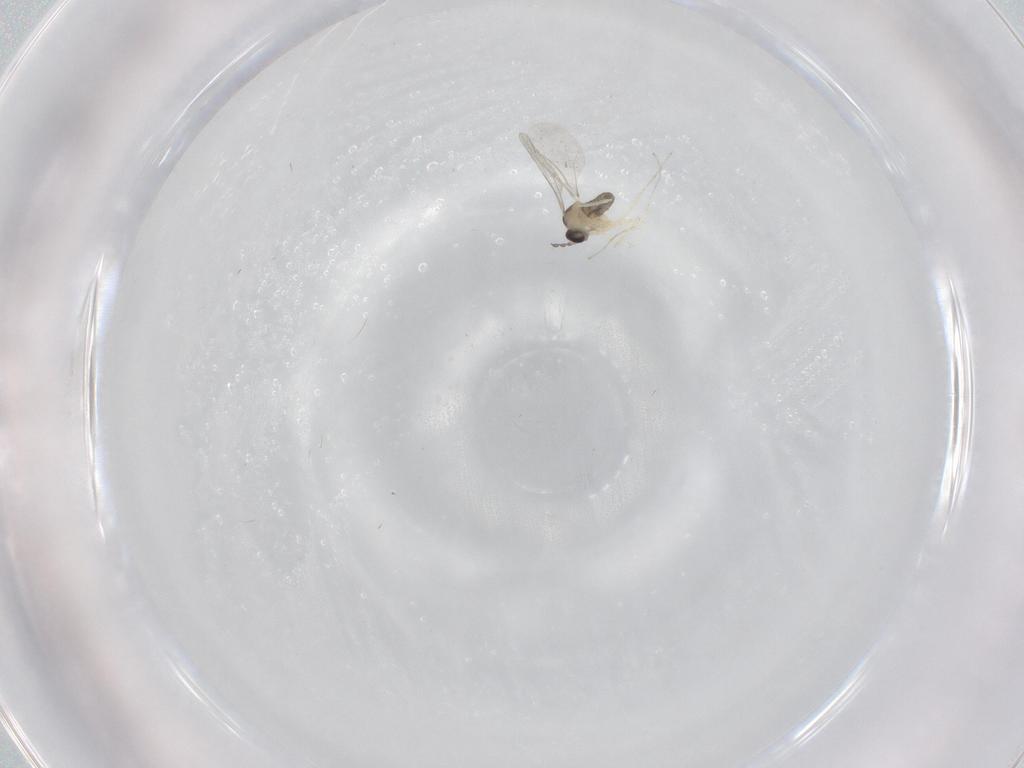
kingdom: Animalia
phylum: Arthropoda
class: Insecta
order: Diptera
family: Cecidomyiidae
